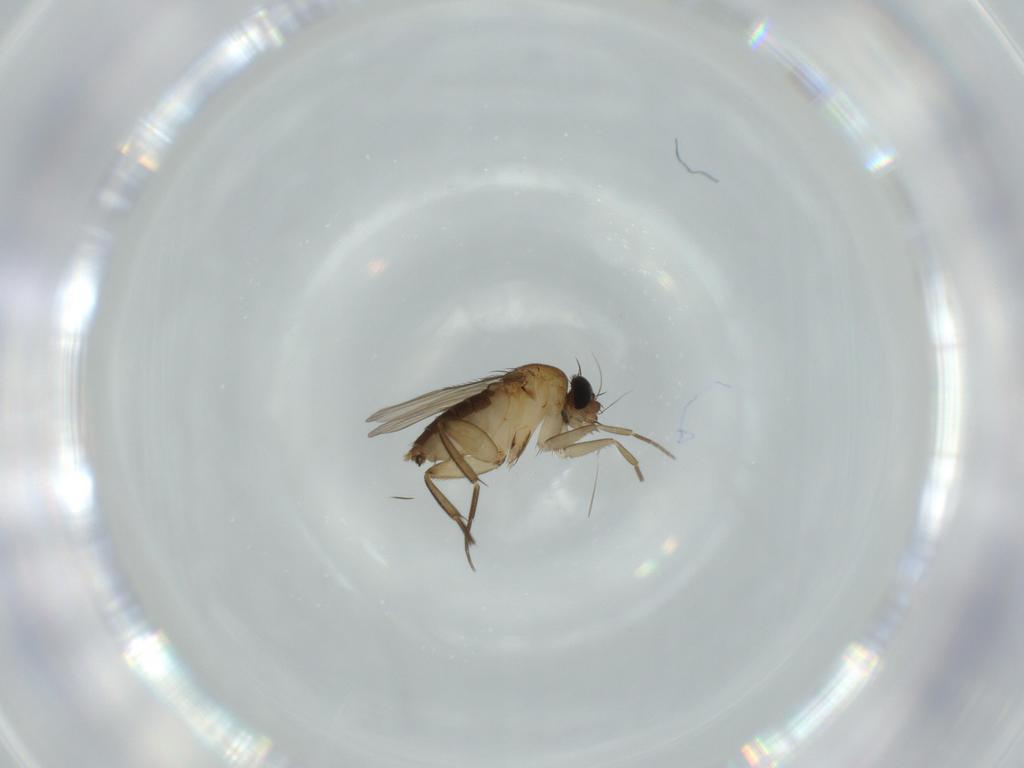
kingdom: Animalia
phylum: Arthropoda
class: Insecta
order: Diptera
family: Phoridae
